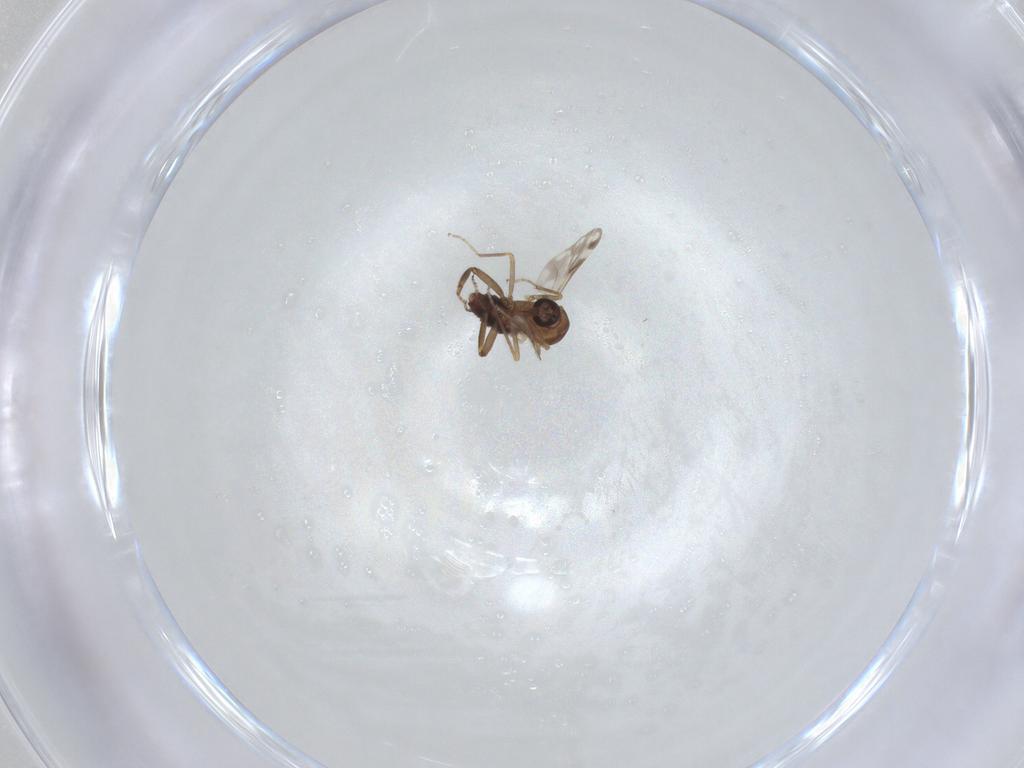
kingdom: Animalia
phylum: Arthropoda
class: Insecta
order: Diptera
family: Ceratopogonidae
